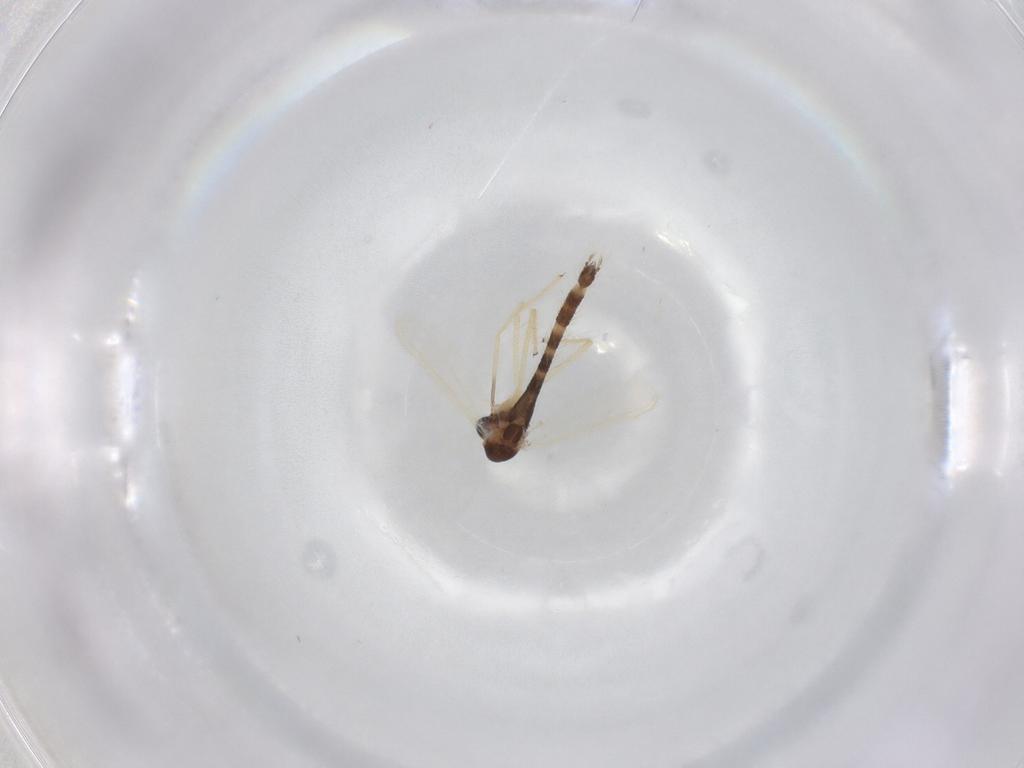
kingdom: Animalia
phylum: Arthropoda
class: Insecta
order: Diptera
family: Chironomidae
